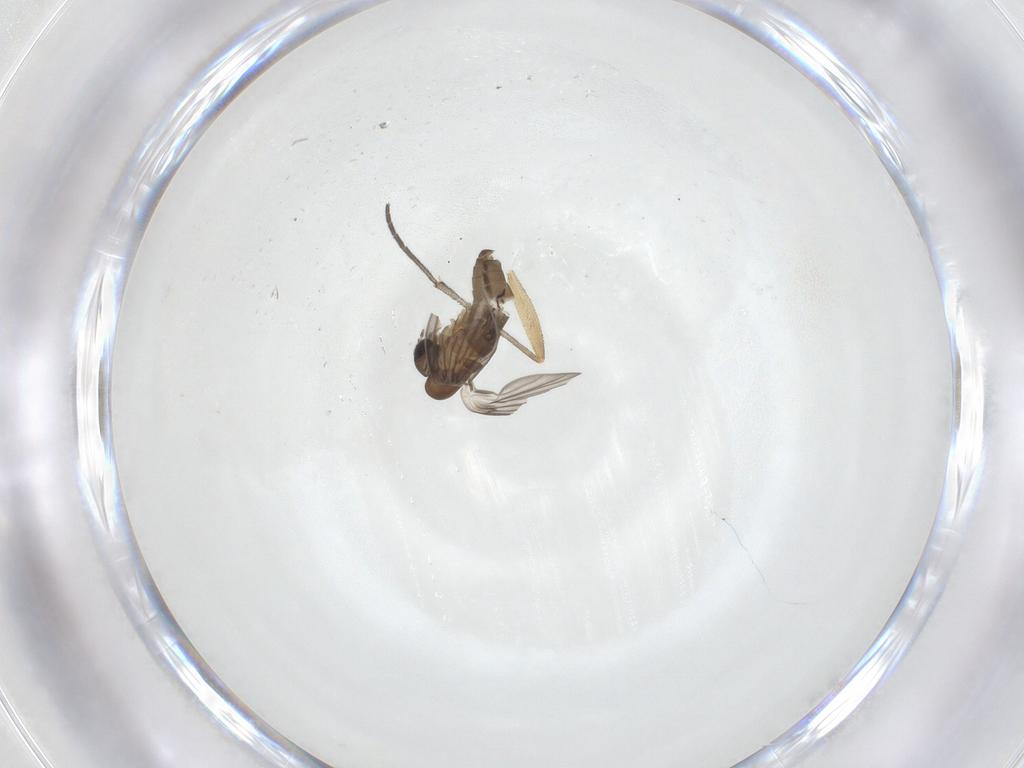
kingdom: Animalia
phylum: Arthropoda
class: Insecta
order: Diptera
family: Psychodidae
